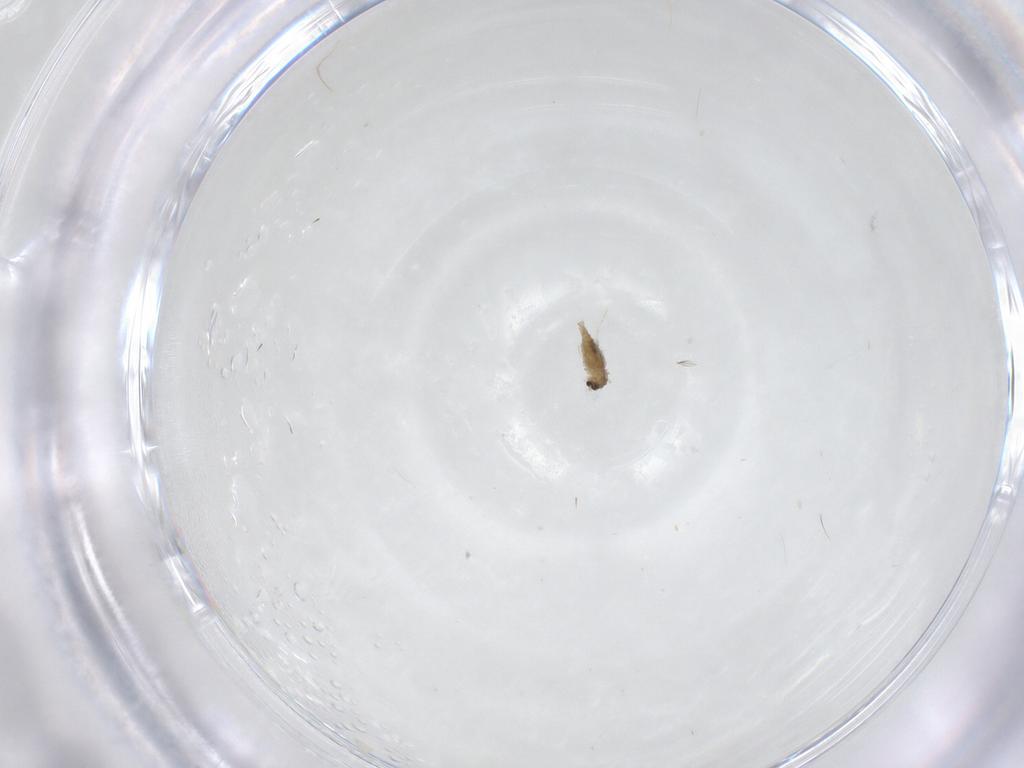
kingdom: Animalia
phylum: Arthropoda
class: Insecta
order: Diptera
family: Cecidomyiidae
